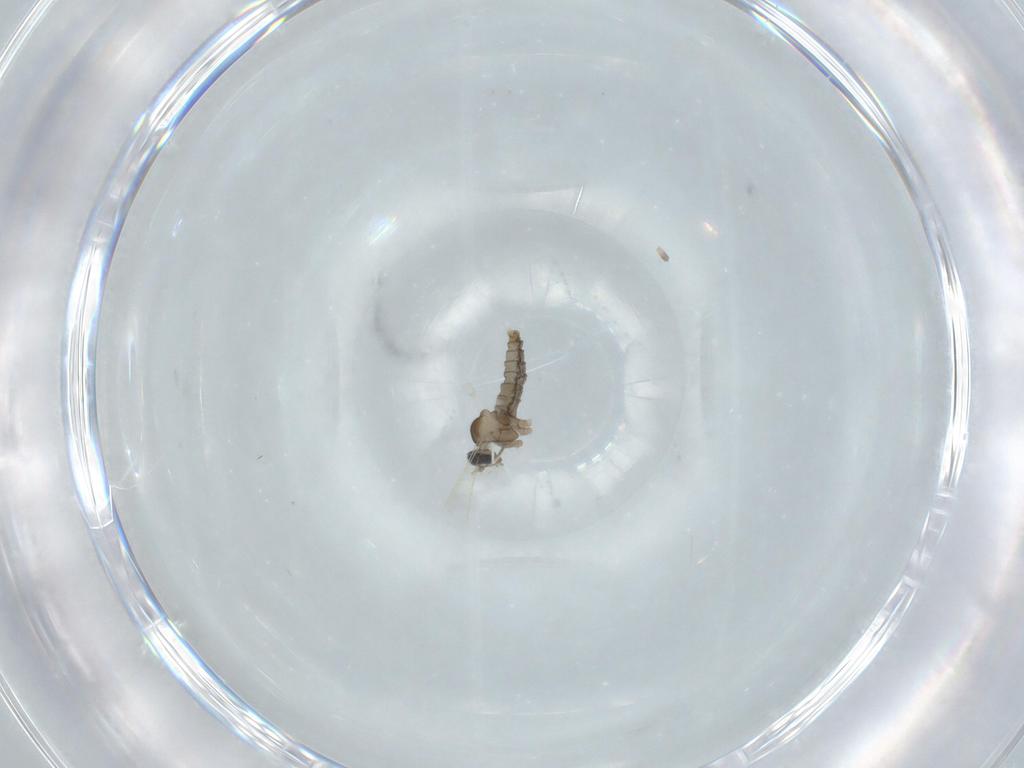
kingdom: Animalia
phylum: Arthropoda
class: Insecta
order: Diptera
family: Cecidomyiidae
